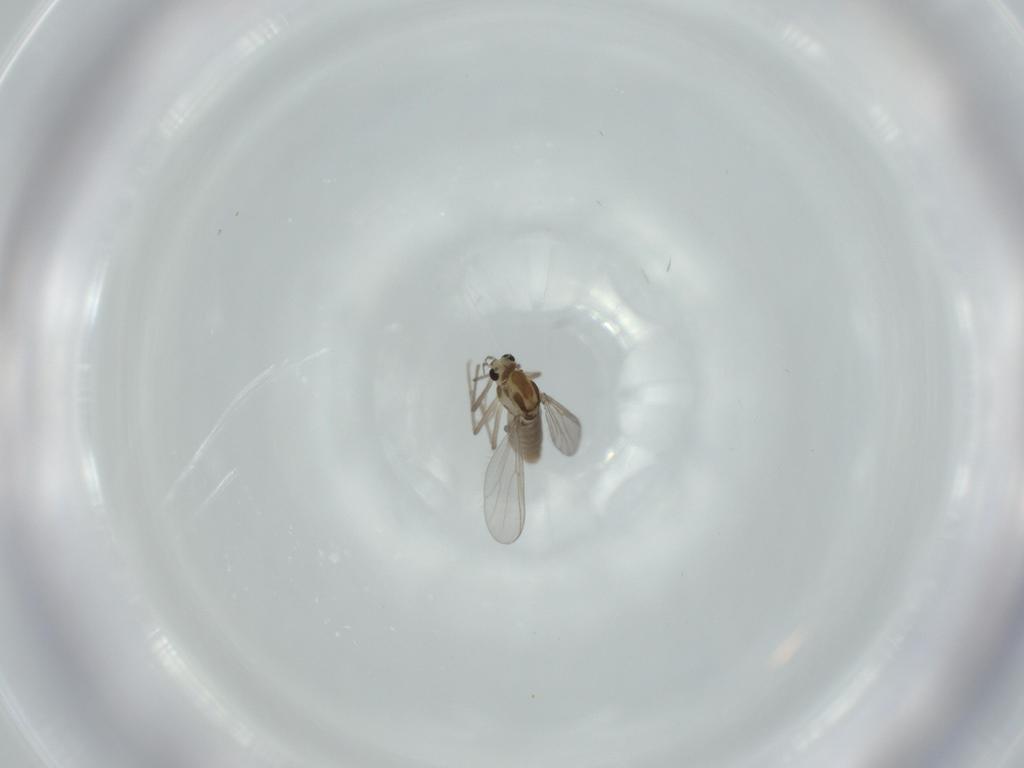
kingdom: Animalia
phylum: Arthropoda
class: Insecta
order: Diptera
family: Chironomidae
